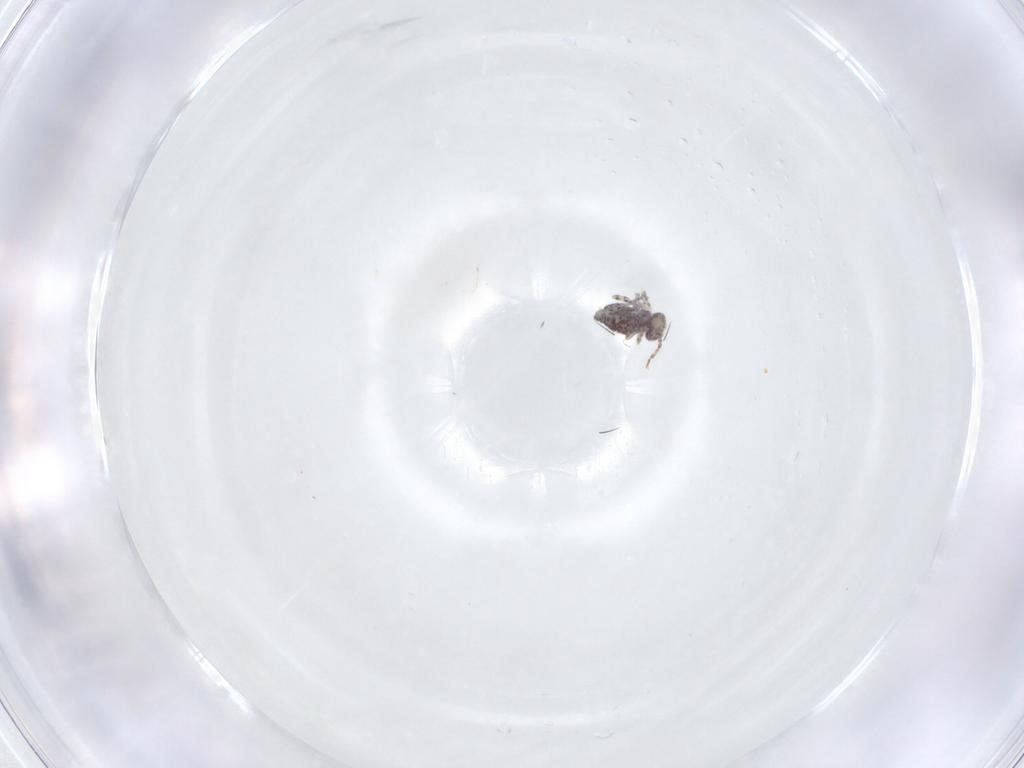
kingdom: Animalia
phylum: Arthropoda
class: Collembola
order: Symphypleona
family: Bourletiellidae
